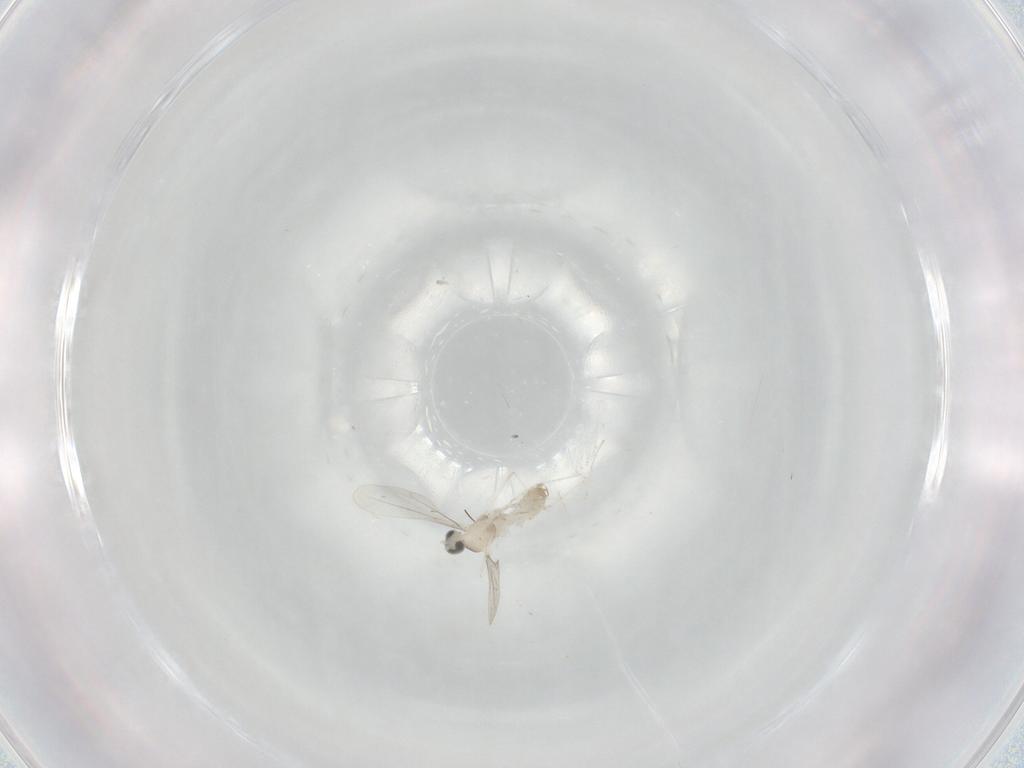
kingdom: Animalia
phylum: Arthropoda
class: Insecta
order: Diptera
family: Cecidomyiidae
